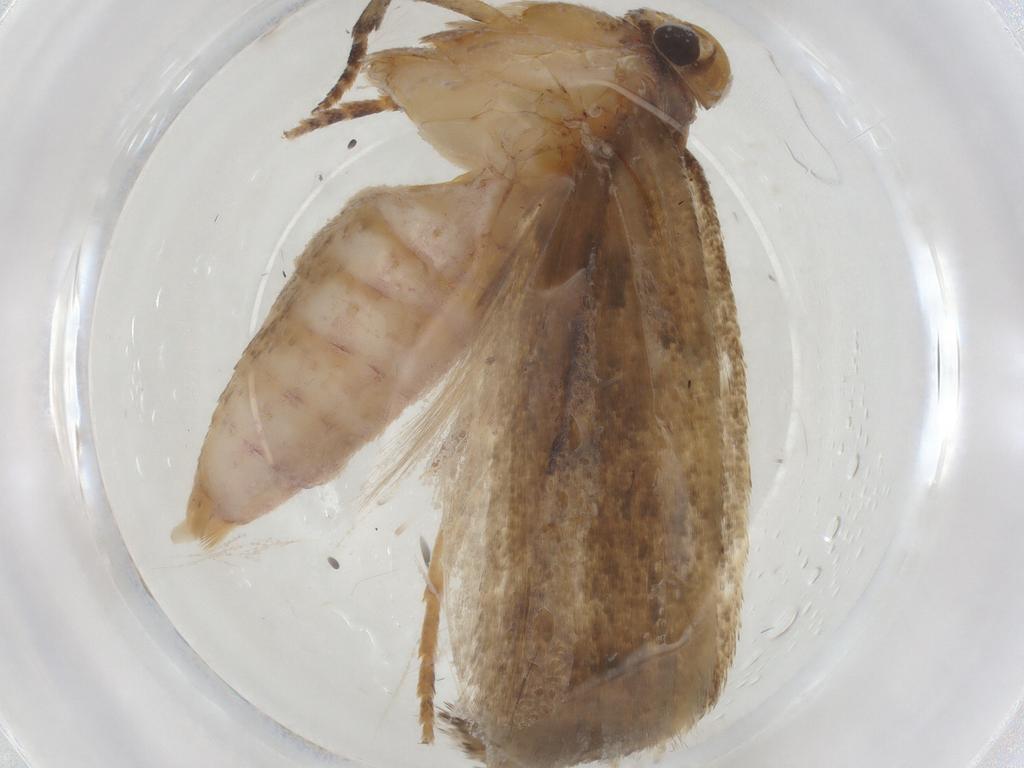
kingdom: Animalia
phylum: Arthropoda
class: Insecta
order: Lepidoptera
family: Gelechiidae
